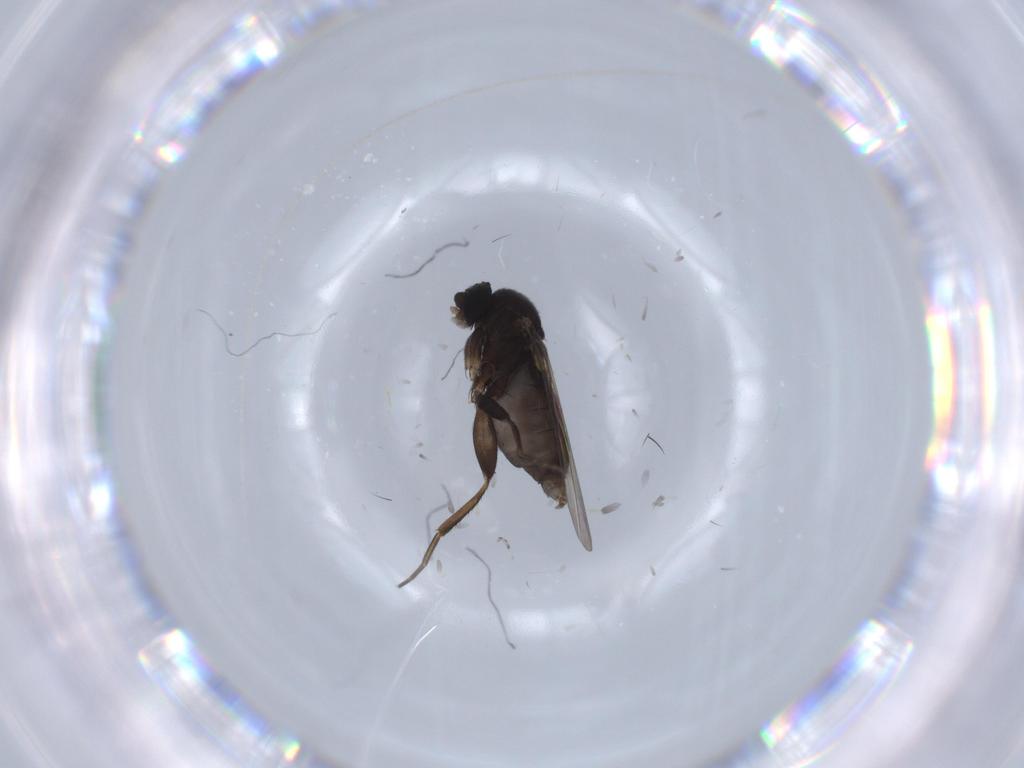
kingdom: Animalia
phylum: Arthropoda
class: Insecta
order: Diptera
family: Phoridae
